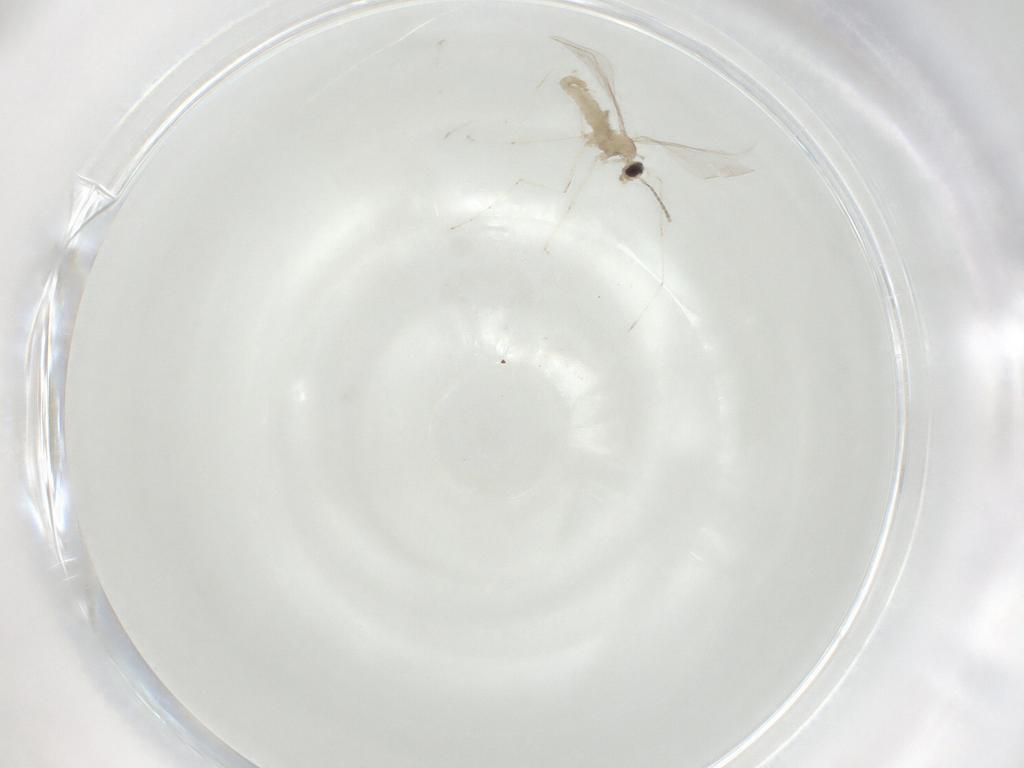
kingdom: Animalia
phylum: Arthropoda
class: Insecta
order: Diptera
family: Cecidomyiidae
